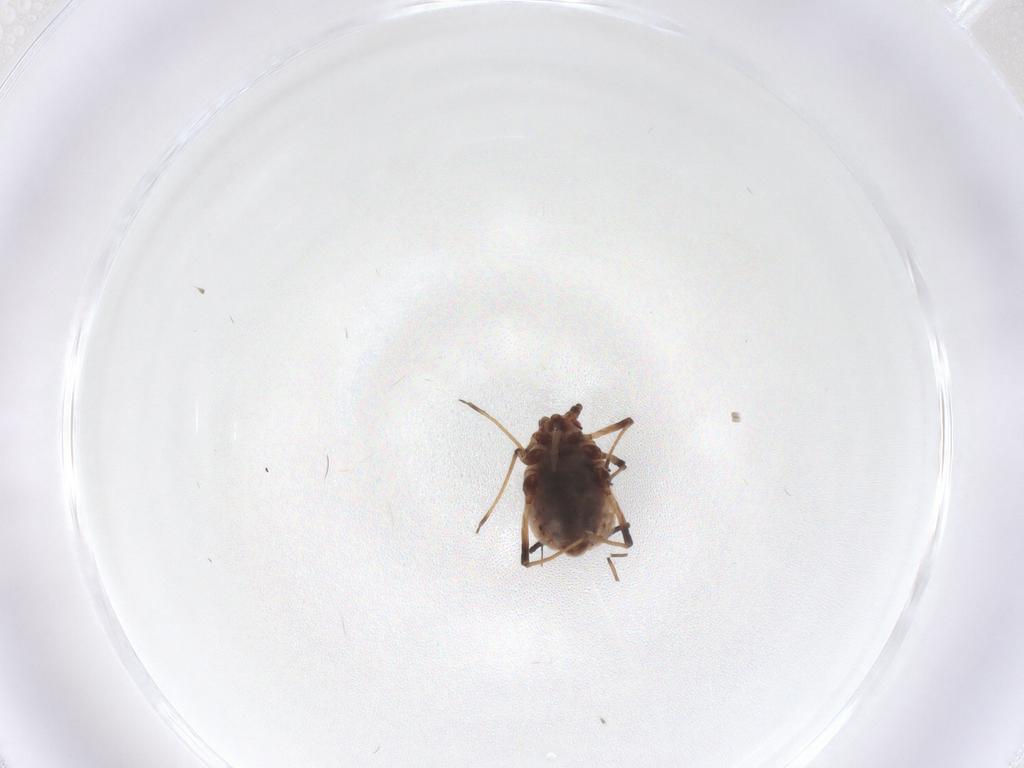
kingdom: Animalia
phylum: Arthropoda
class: Insecta
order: Hemiptera
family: Aphididae
